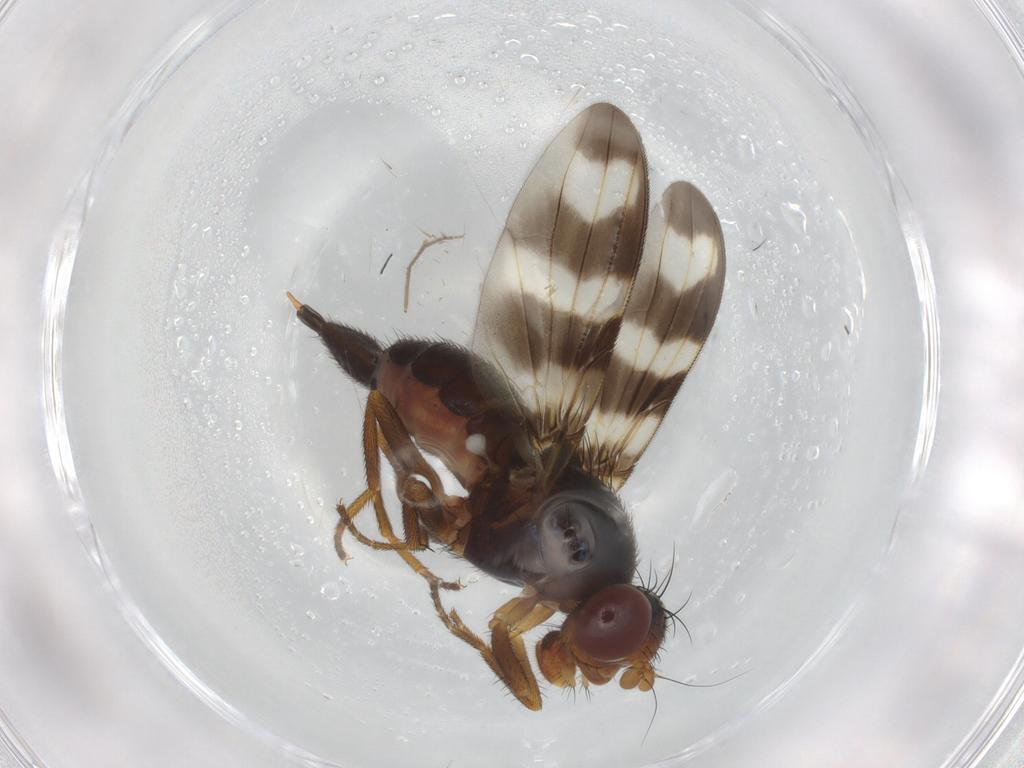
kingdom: Animalia
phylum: Arthropoda
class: Insecta
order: Diptera
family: Ulidiidae
